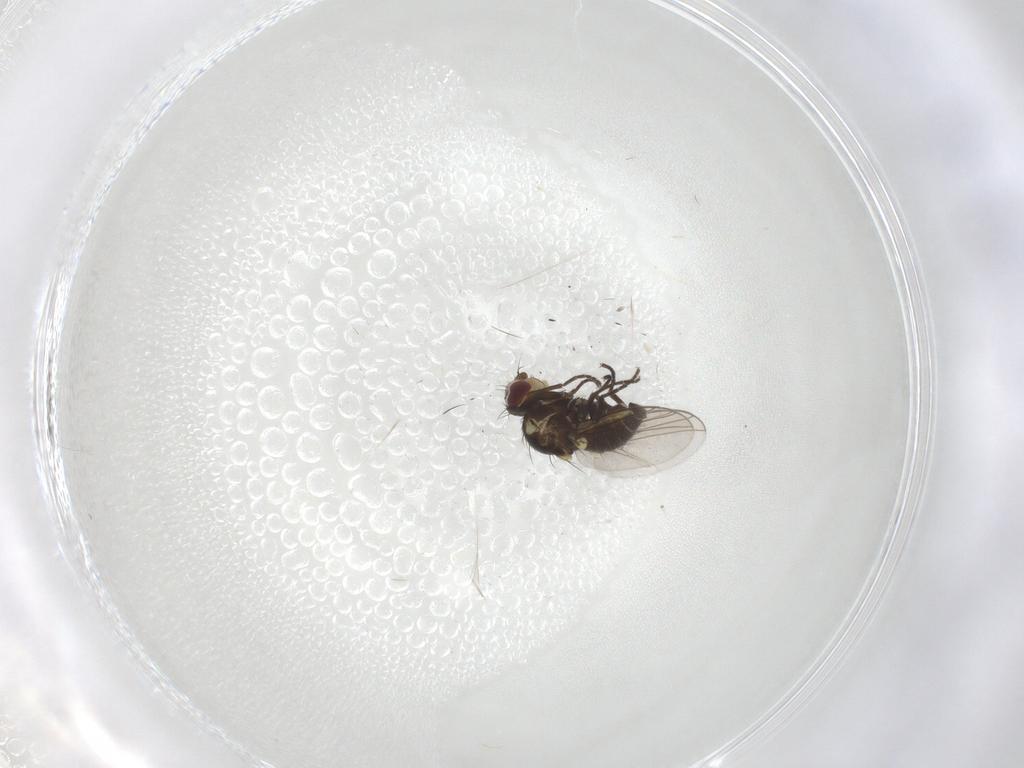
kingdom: Animalia
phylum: Arthropoda
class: Insecta
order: Diptera
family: Agromyzidae
